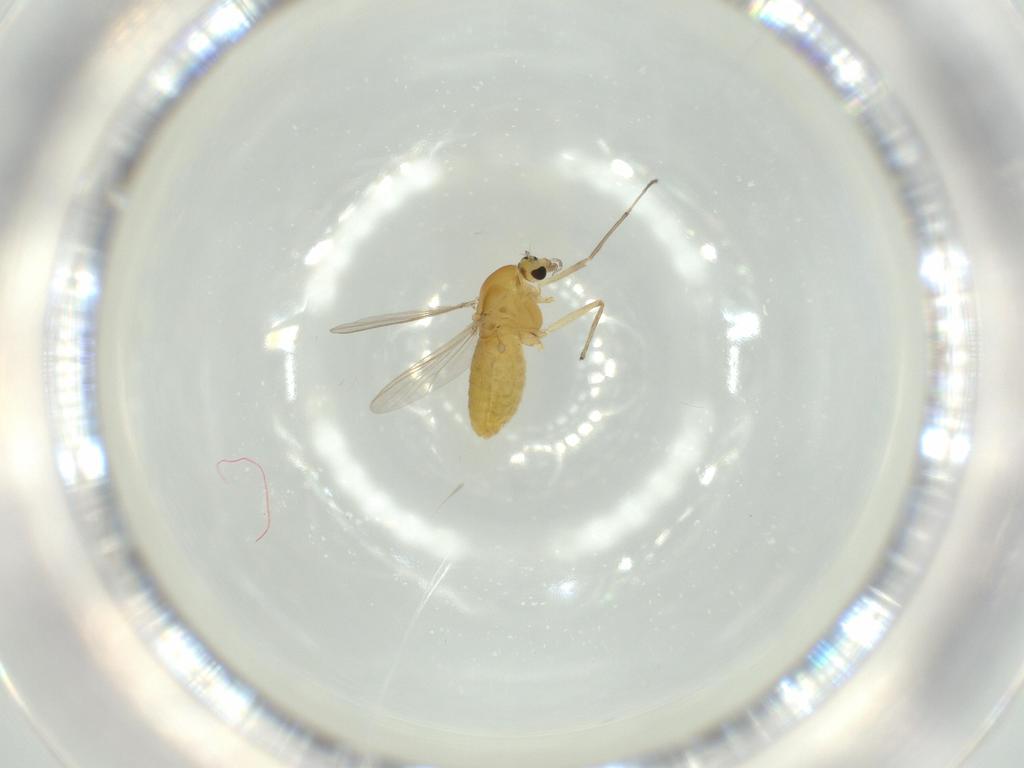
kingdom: Animalia
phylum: Arthropoda
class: Insecta
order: Diptera
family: Chironomidae
